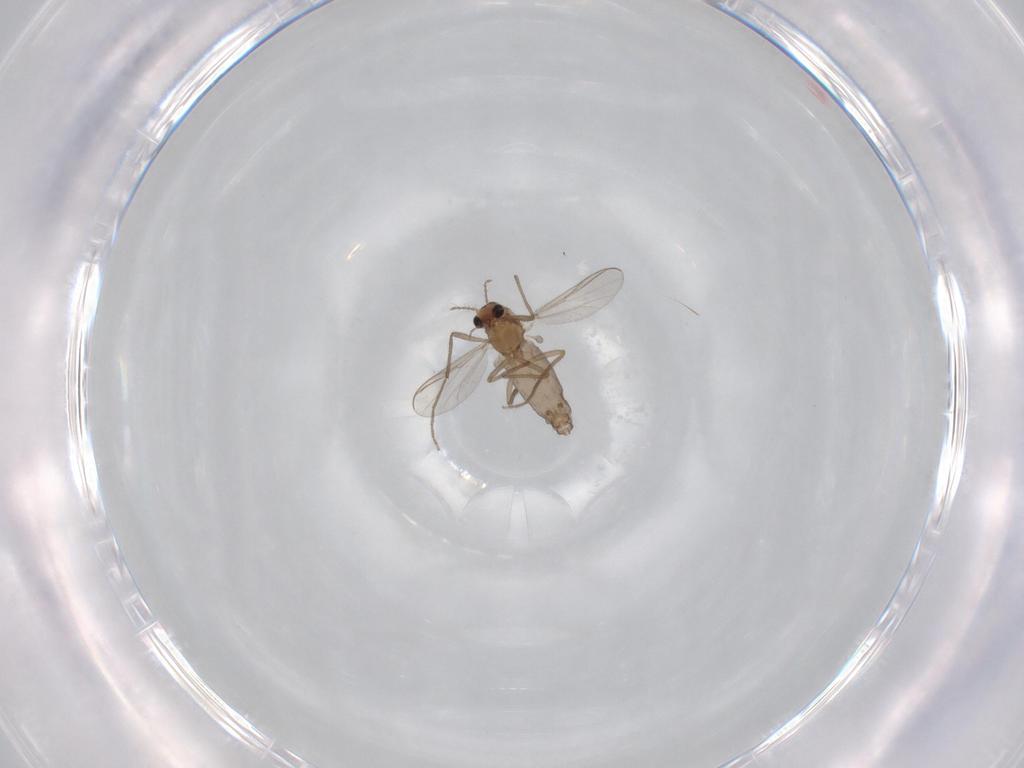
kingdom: Animalia
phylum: Arthropoda
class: Insecta
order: Diptera
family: Chironomidae
